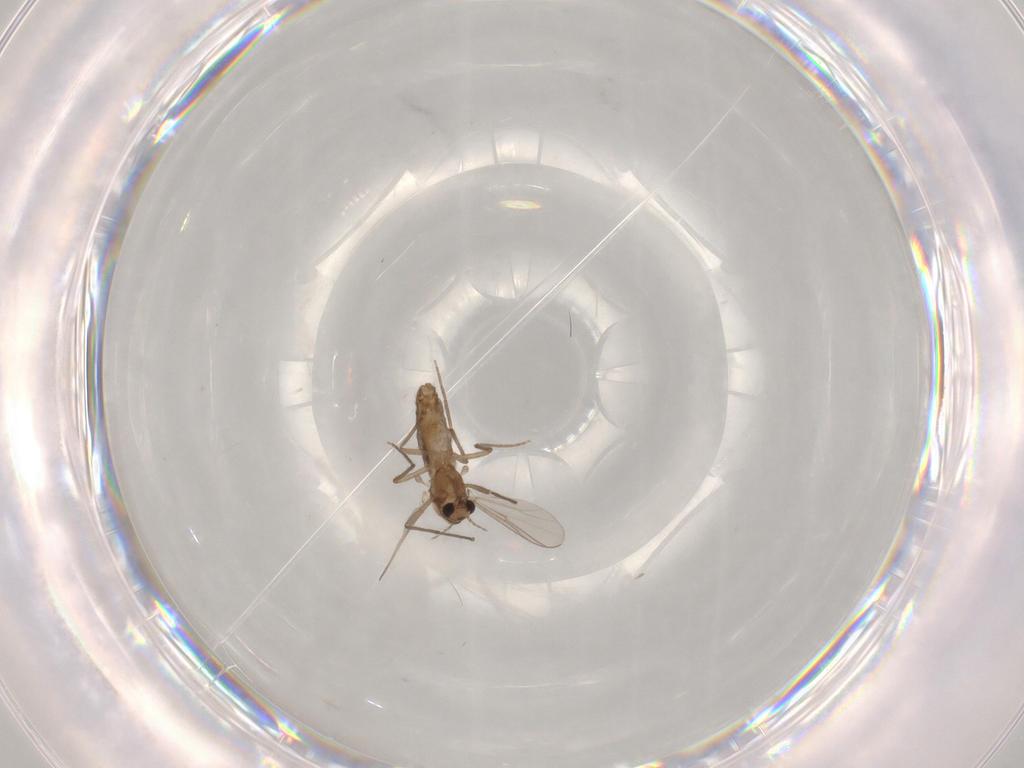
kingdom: Animalia
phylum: Arthropoda
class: Insecta
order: Diptera
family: Chironomidae
